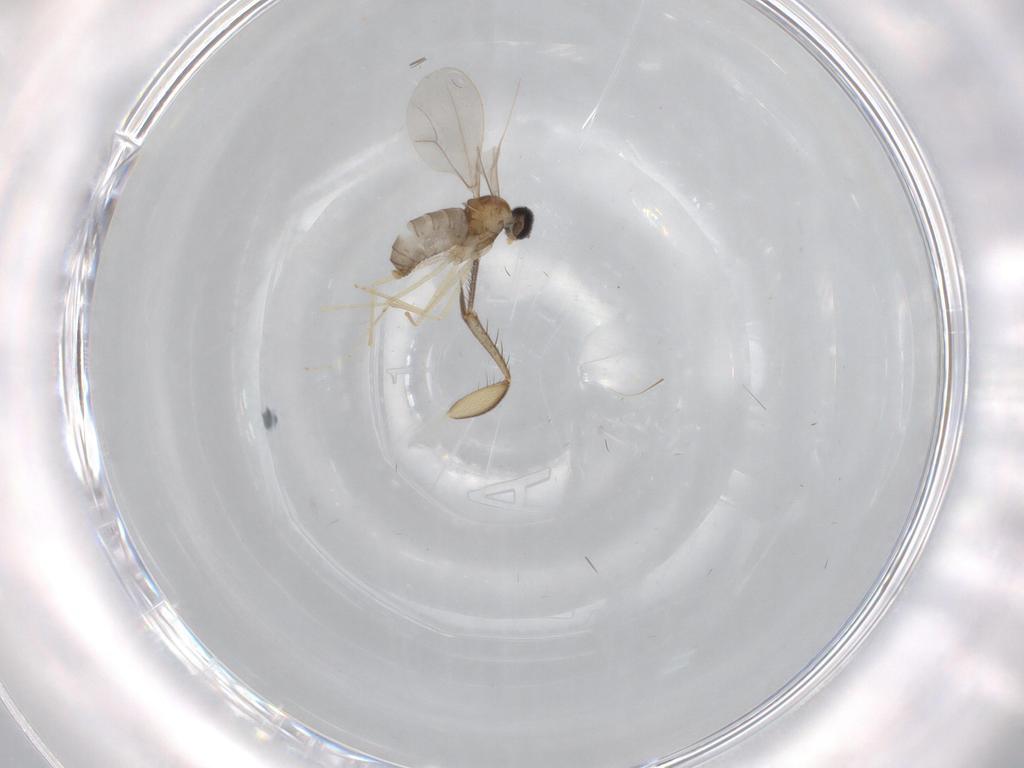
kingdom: Animalia
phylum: Arthropoda
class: Insecta
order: Diptera
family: Cecidomyiidae
